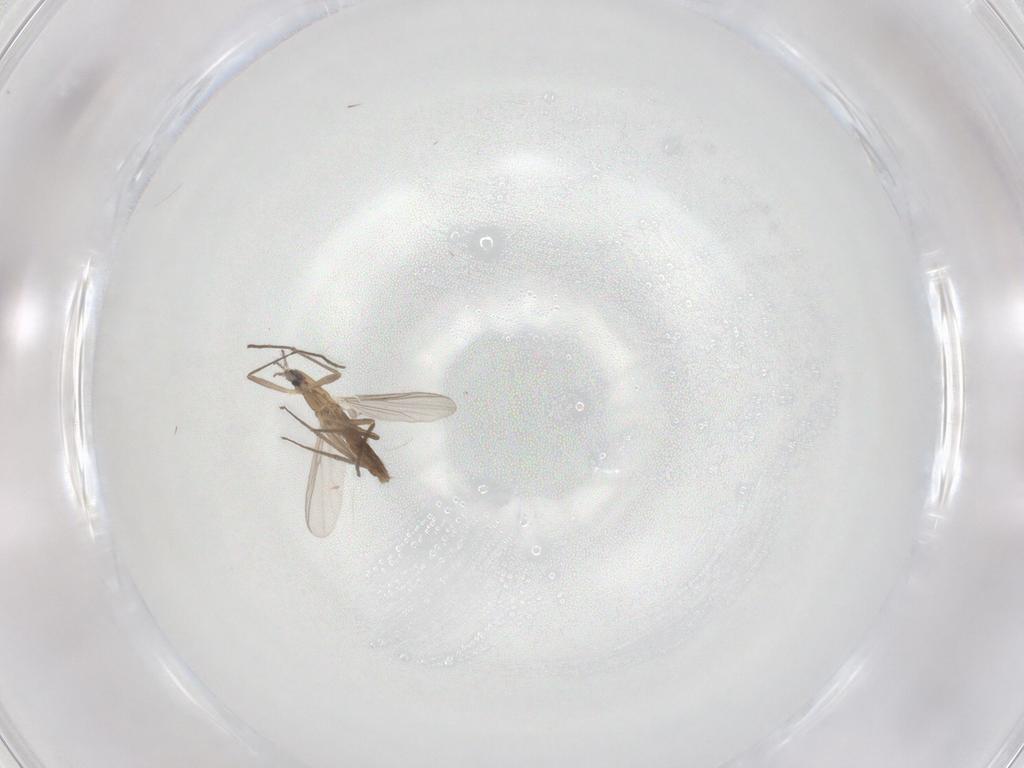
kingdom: Animalia
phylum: Arthropoda
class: Insecta
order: Diptera
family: Chironomidae
